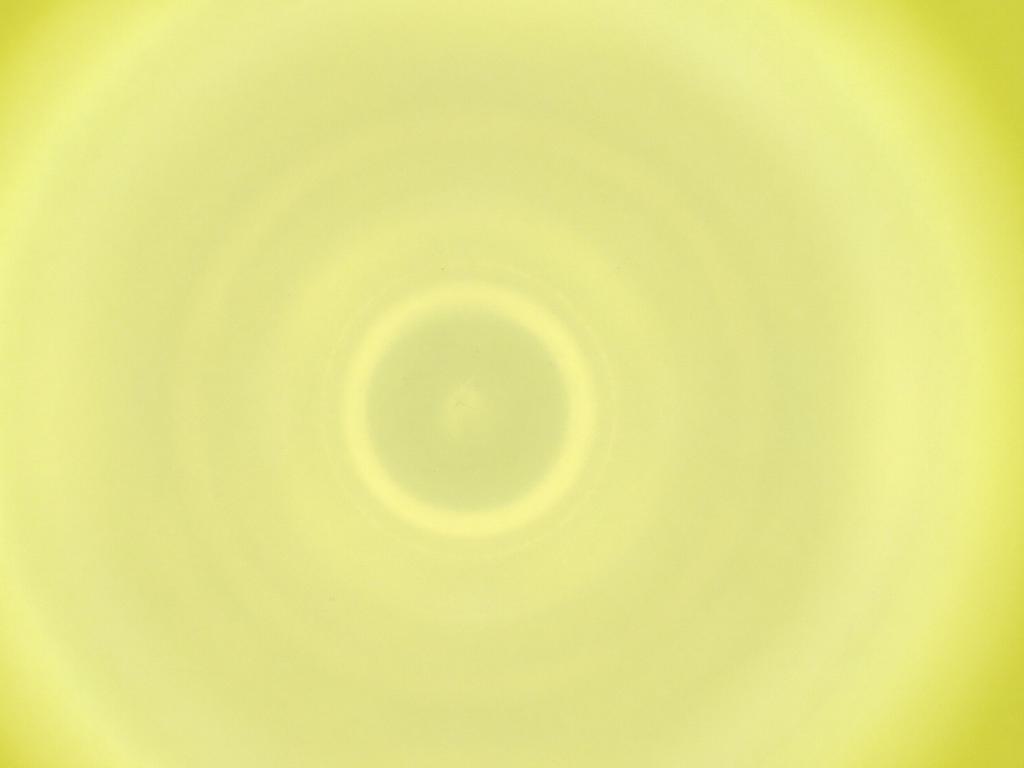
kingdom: Animalia
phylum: Arthropoda
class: Insecta
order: Diptera
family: Cecidomyiidae
